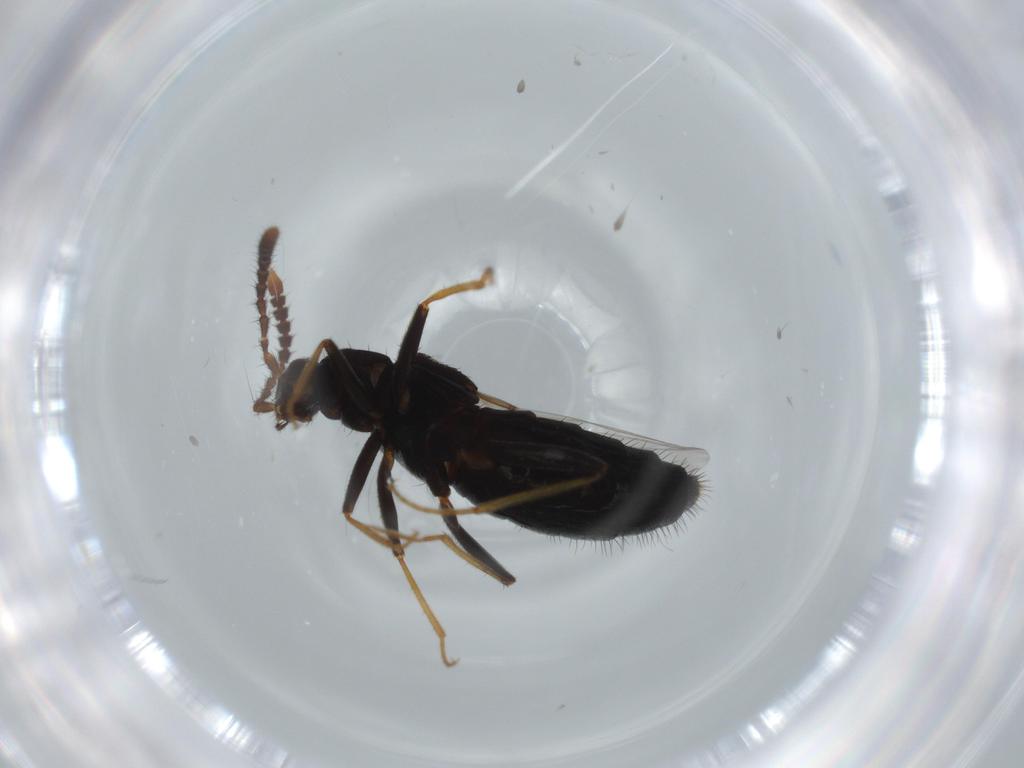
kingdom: Animalia
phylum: Arthropoda
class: Insecta
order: Coleoptera
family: Staphylinidae
